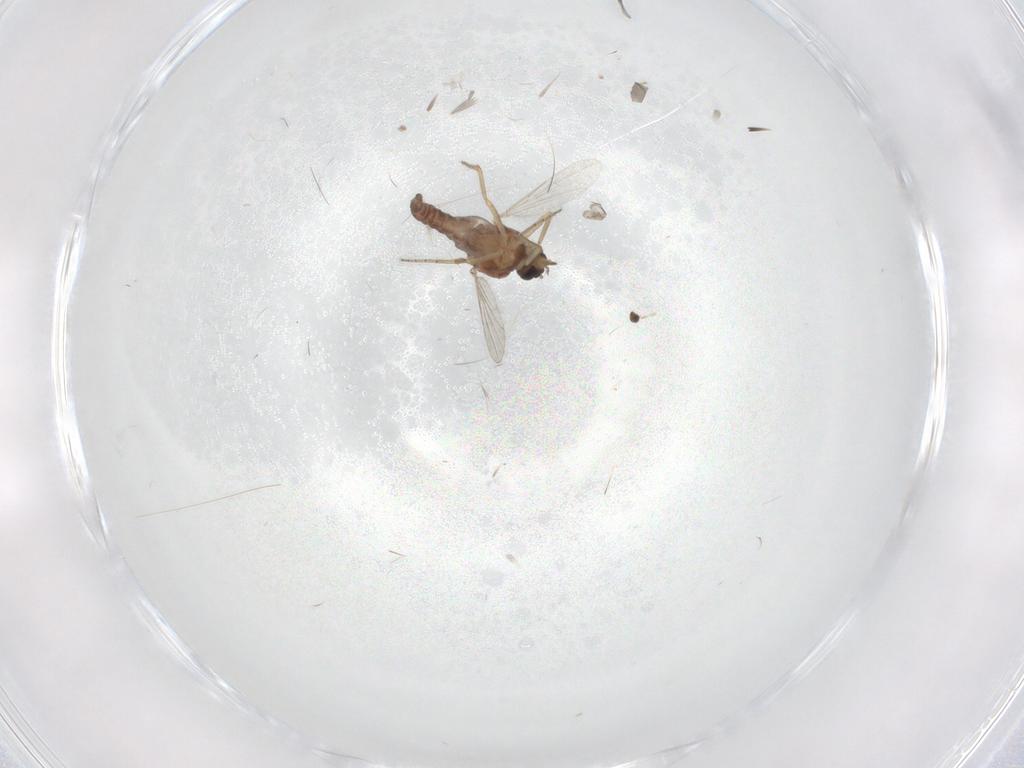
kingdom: Animalia
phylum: Arthropoda
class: Insecta
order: Diptera
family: Ceratopogonidae
